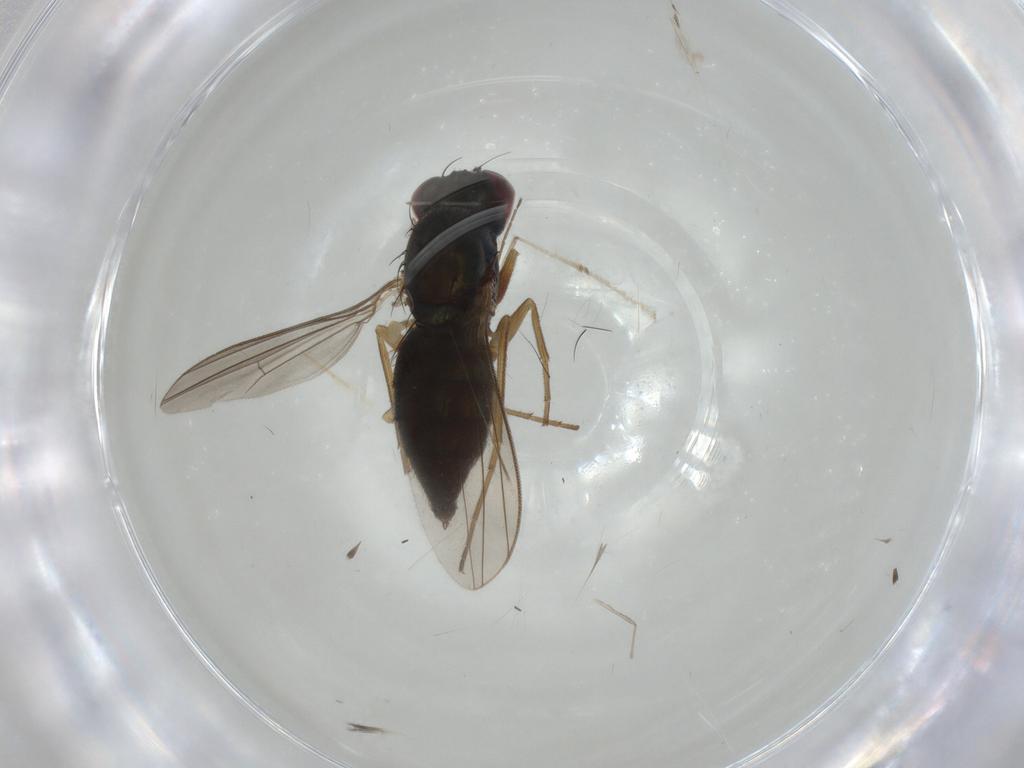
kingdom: Animalia
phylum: Arthropoda
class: Insecta
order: Diptera
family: Dolichopodidae
